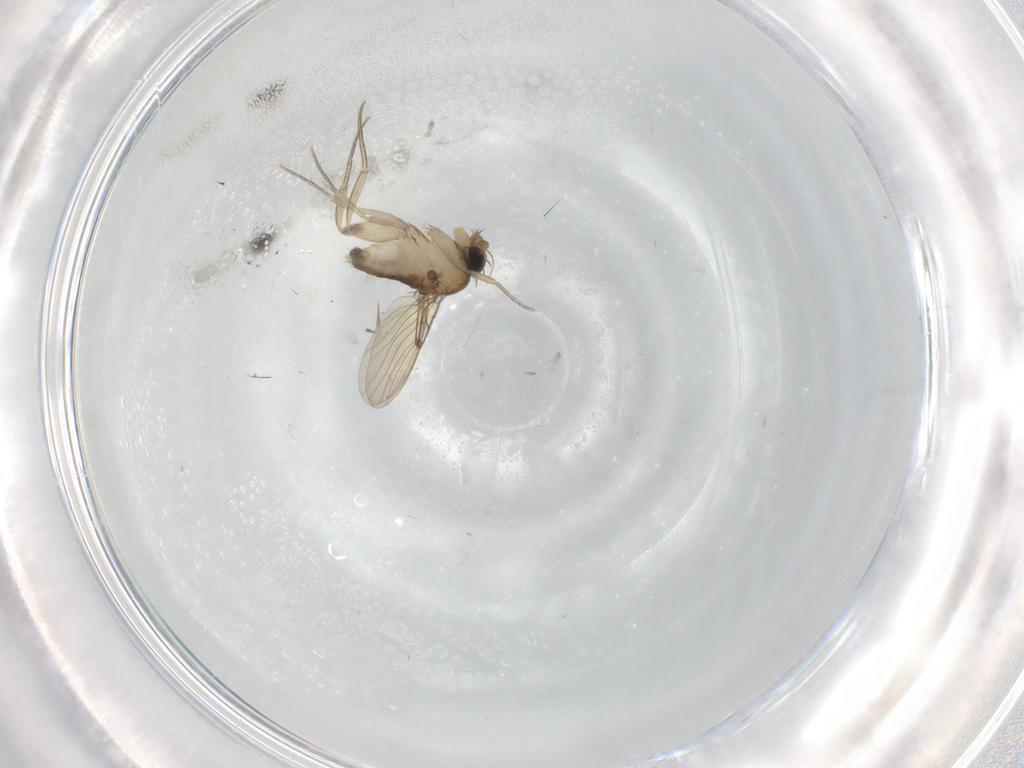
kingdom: Animalia
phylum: Arthropoda
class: Insecta
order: Diptera
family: Phoridae
